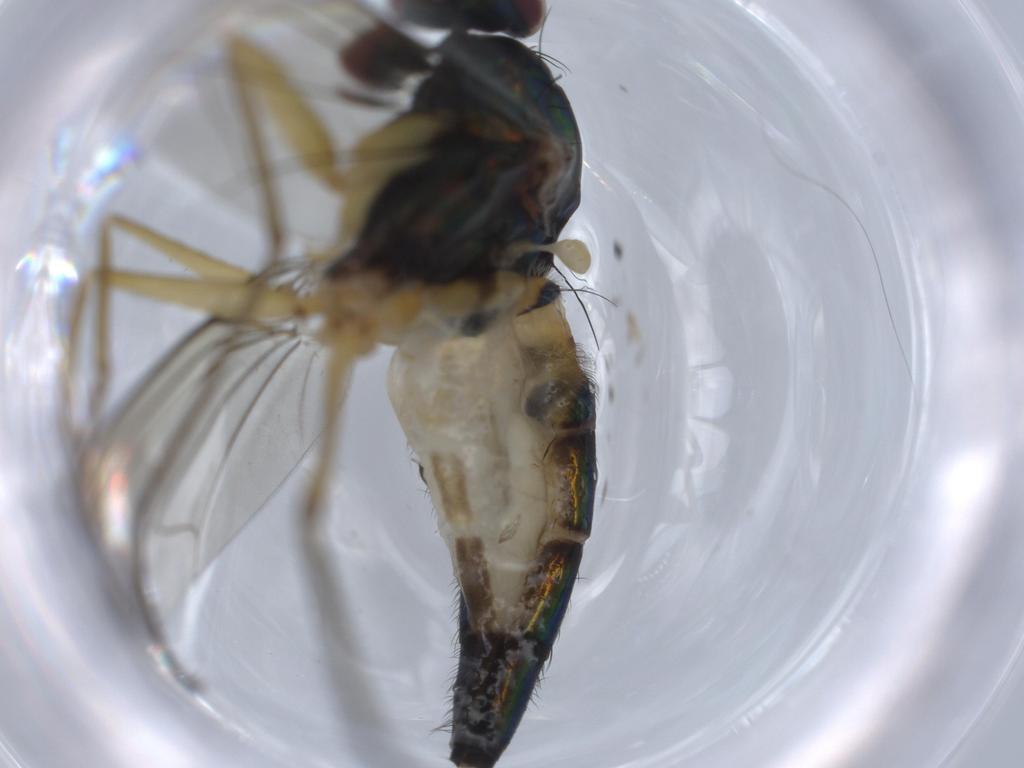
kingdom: Animalia
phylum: Arthropoda
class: Insecta
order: Diptera
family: Dolichopodidae
